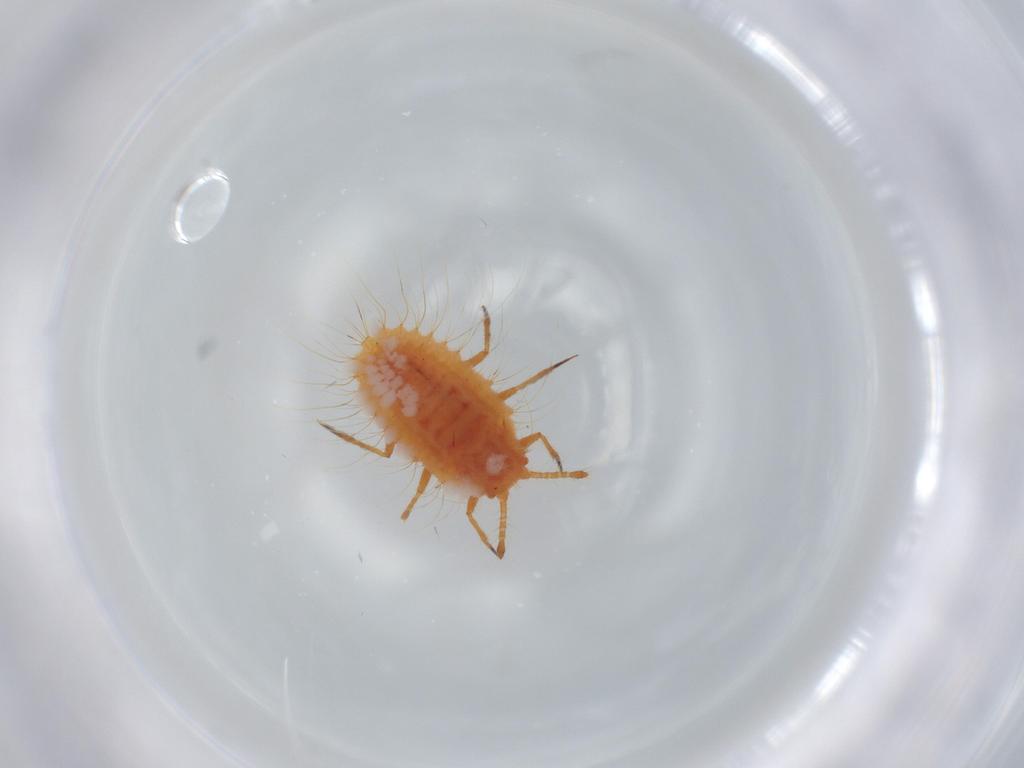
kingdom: Animalia
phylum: Arthropoda
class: Insecta
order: Hemiptera
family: Coccoidea_incertae_sedis
